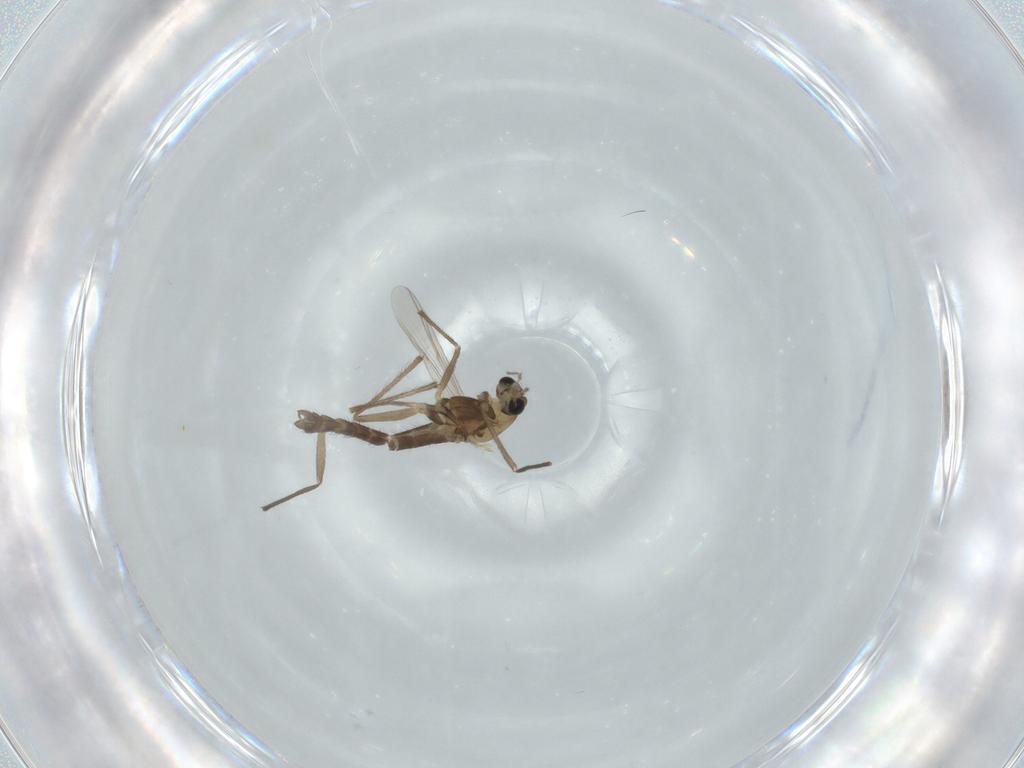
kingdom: Animalia
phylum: Arthropoda
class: Insecta
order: Diptera
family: Chironomidae
